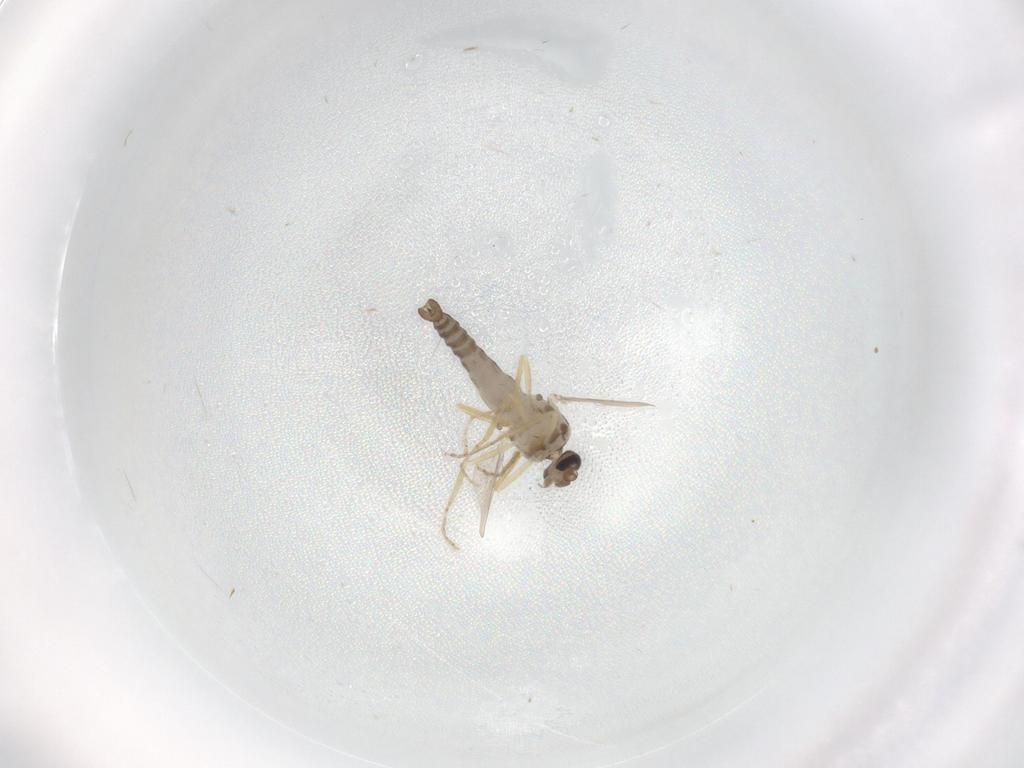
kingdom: Animalia
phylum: Arthropoda
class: Insecta
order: Diptera
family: Ceratopogonidae
